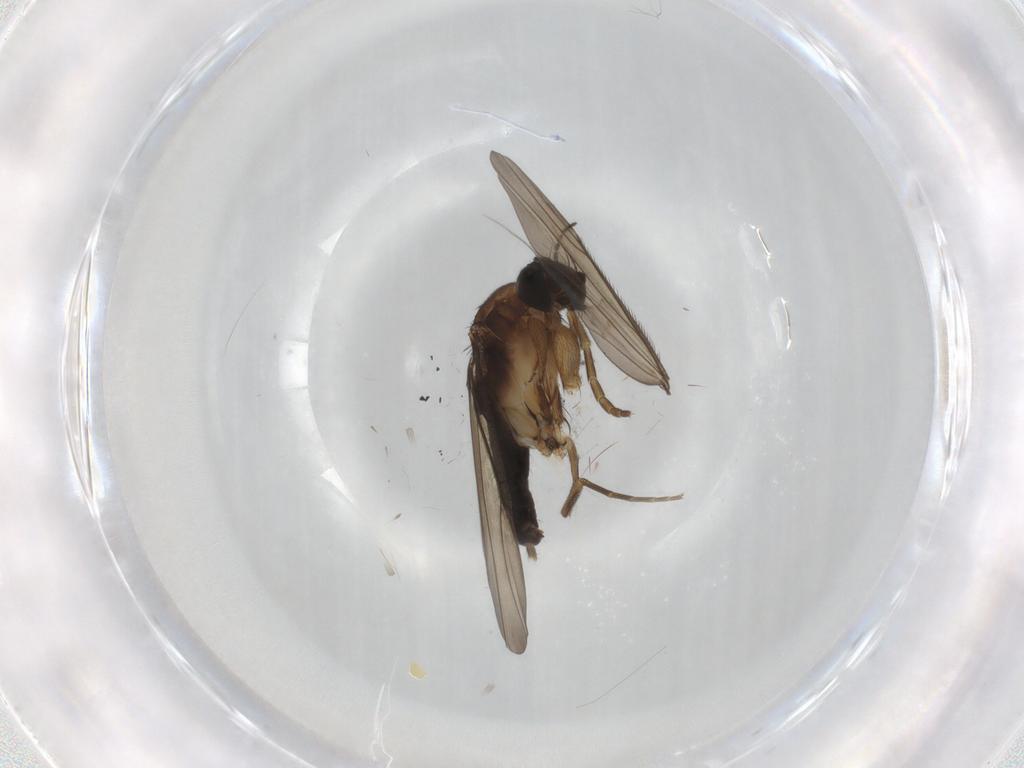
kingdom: Animalia
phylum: Arthropoda
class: Insecta
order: Diptera
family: Phoridae
